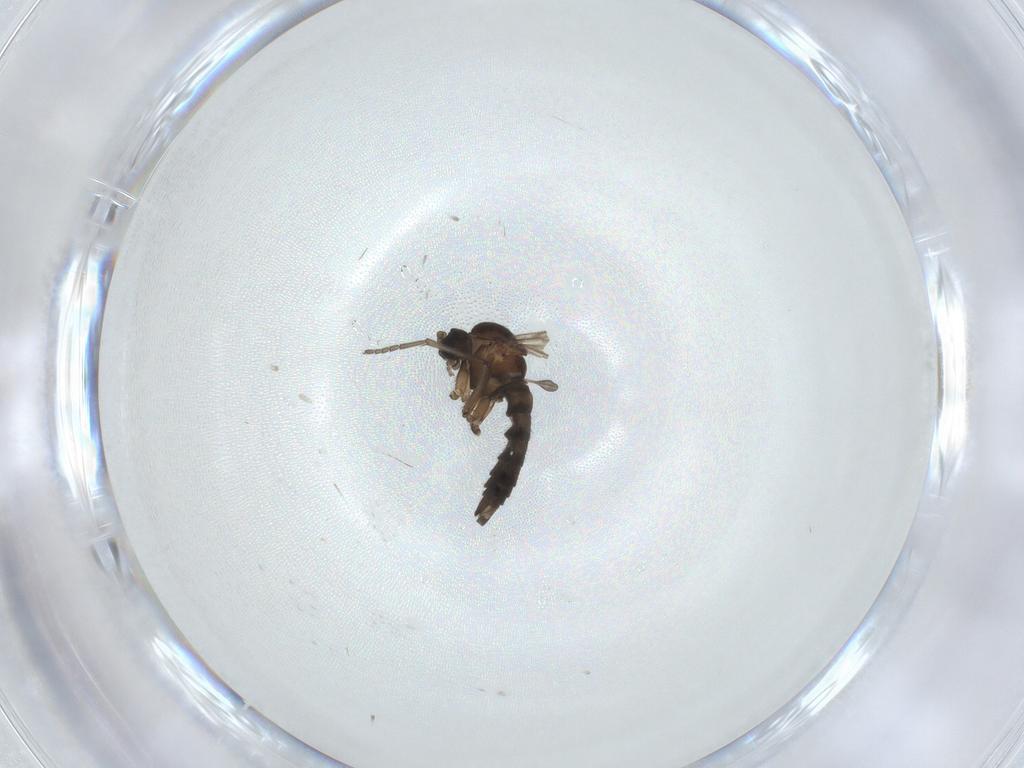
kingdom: Animalia
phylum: Arthropoda
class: Insecta
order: Diptera
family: Sciaridae
